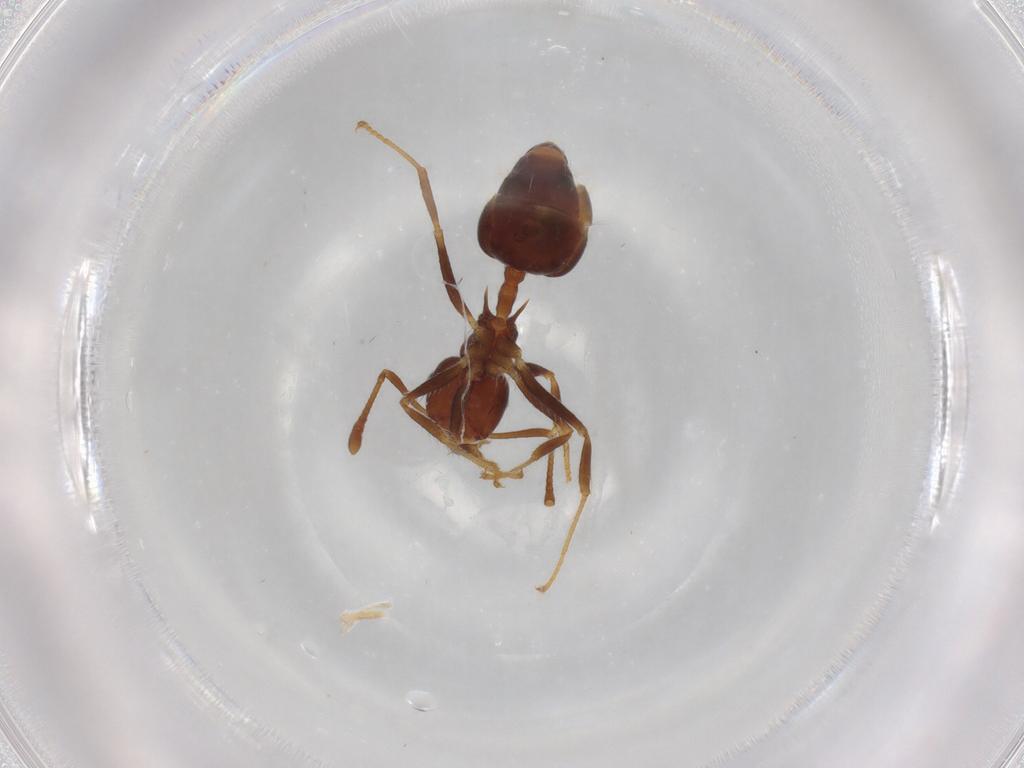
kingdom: Animalia
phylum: Arthropoda
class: Insecta
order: Hymenoptera
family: Formicidae
